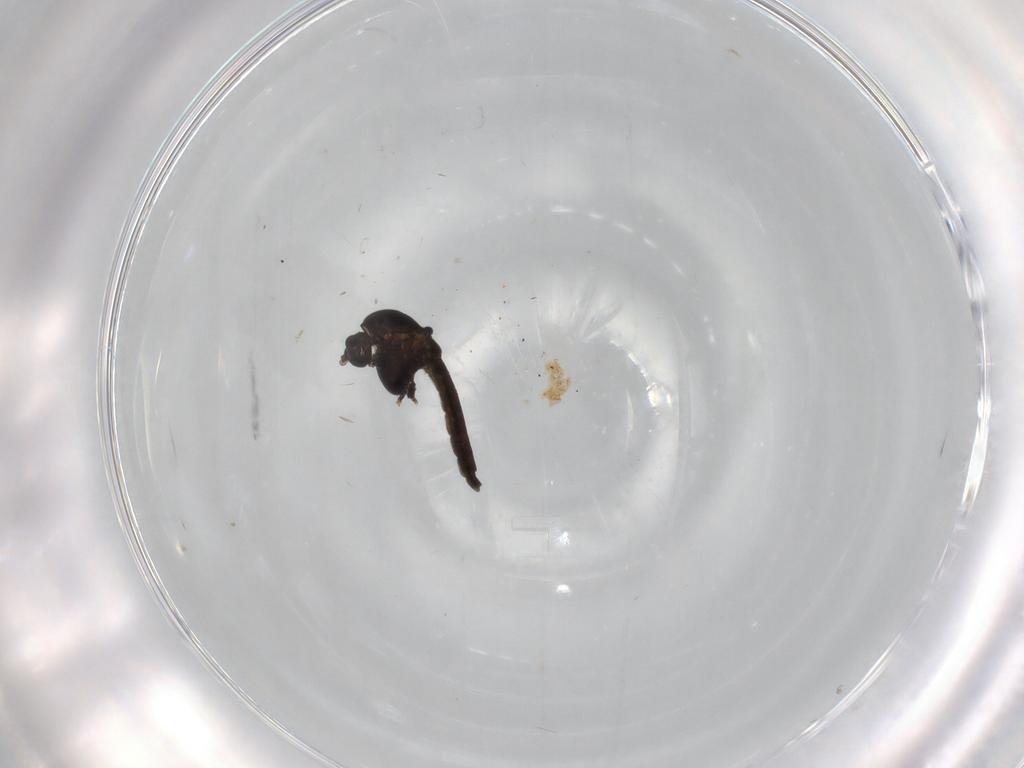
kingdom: Animalia
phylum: Arthropoda
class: Insecta
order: Diptera
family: Chironomidae
